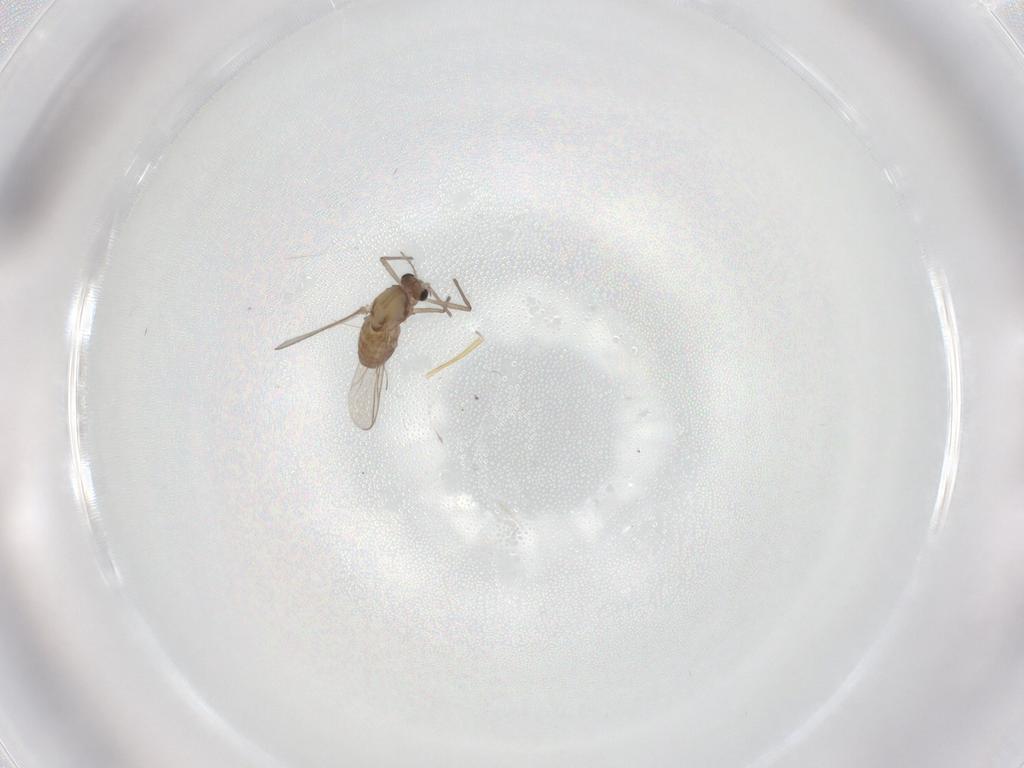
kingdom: Animalia
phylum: Arthropoda
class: Insecta
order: Diptera
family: Chironomidae
